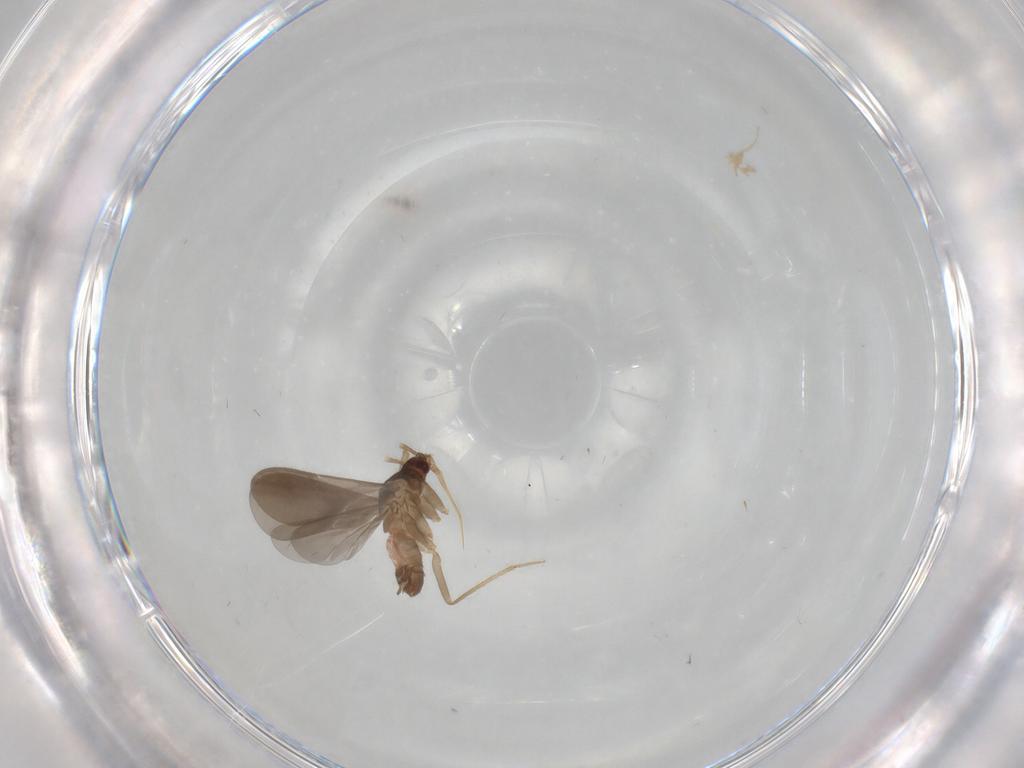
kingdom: Animalia
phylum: Arthropoda
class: Insecta
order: Hemiptera
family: Ceratocombidae
